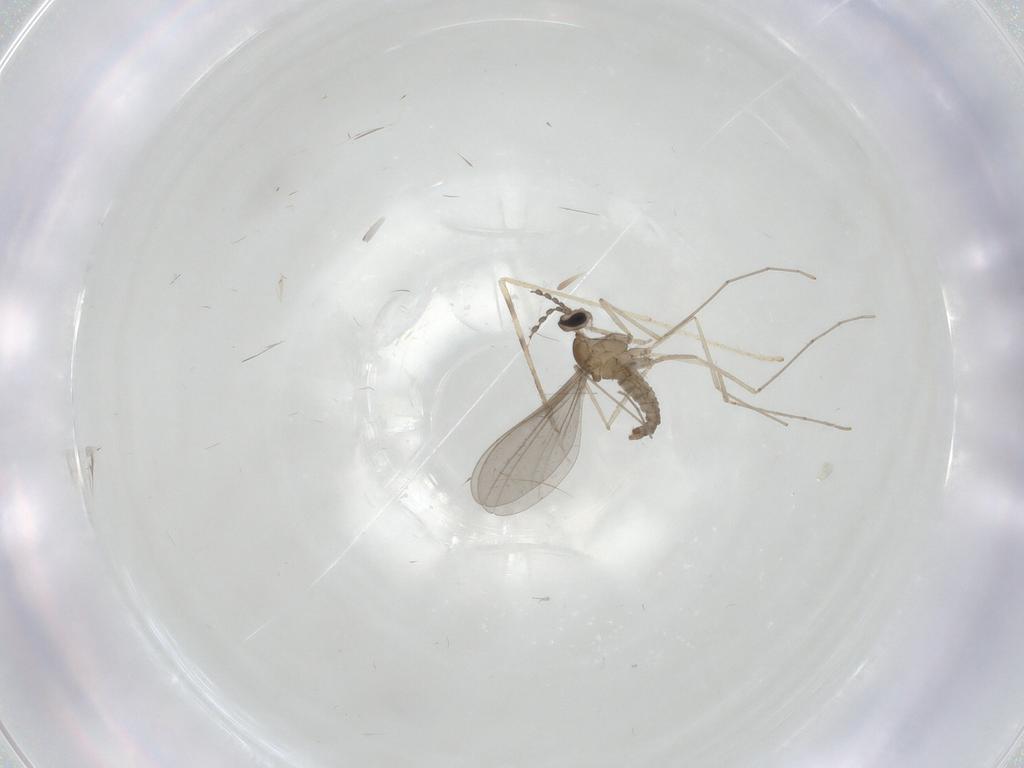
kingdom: Animalia
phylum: Arthropoda
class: Insecta
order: Diptera
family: Limoniidae
